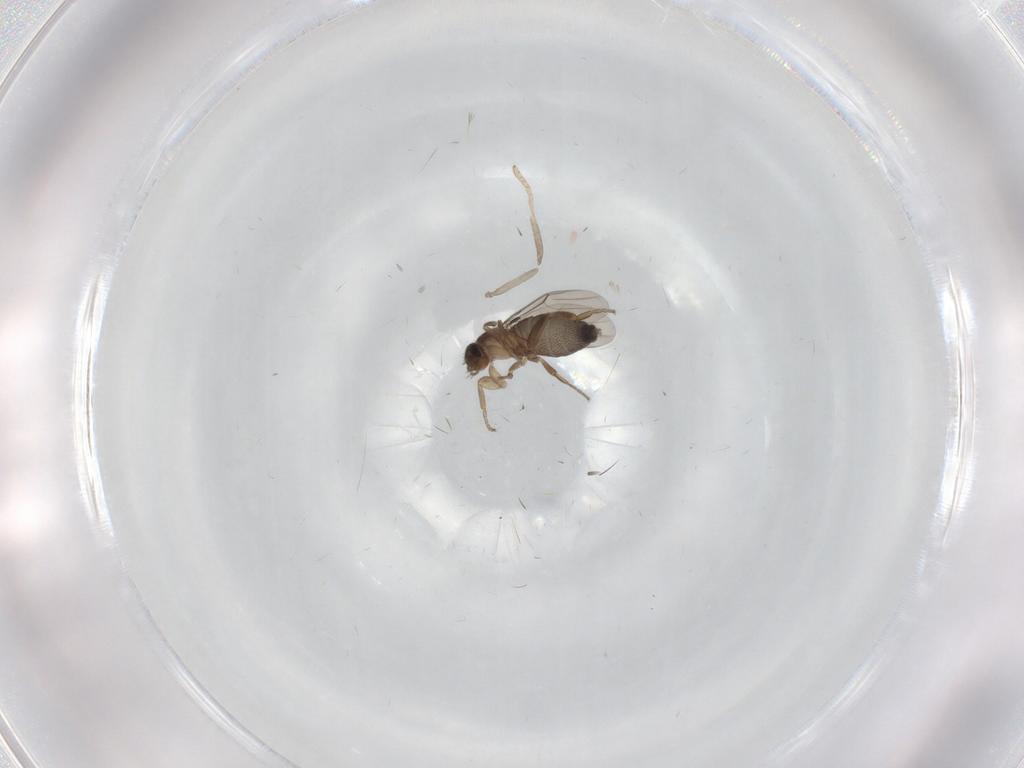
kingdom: Animalia
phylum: Arthropoda
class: Insecta
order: Diptera
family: Cecidomyiidae
